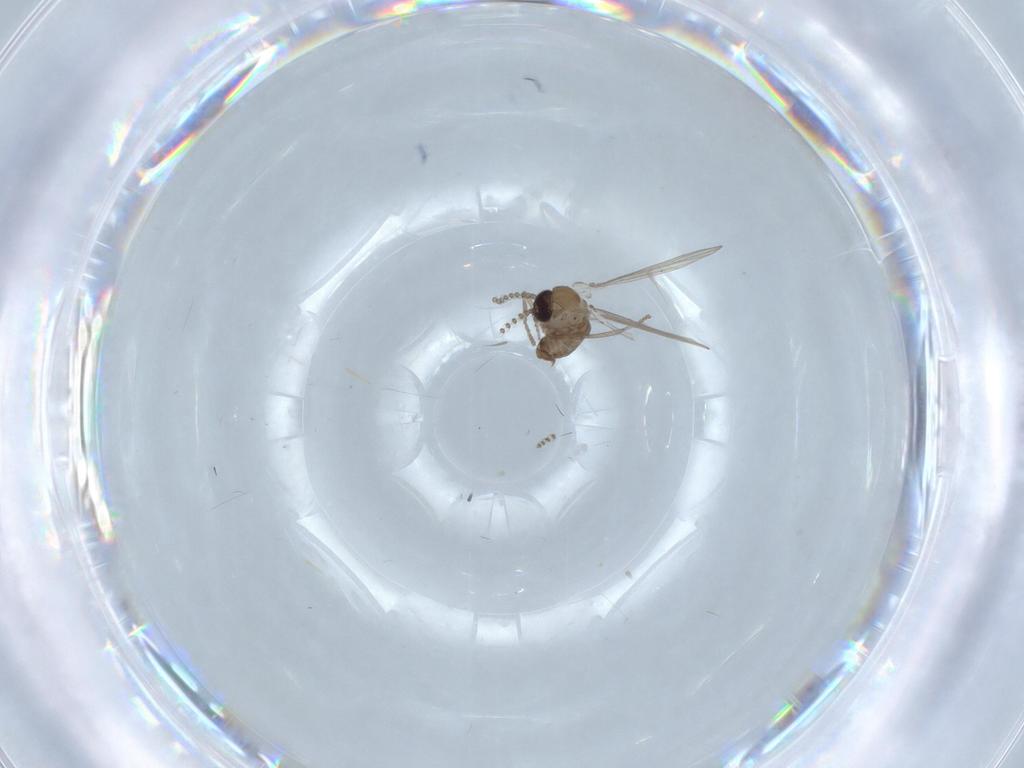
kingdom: Animalia
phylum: Arthropoda
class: Insecta
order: Diptera
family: Psychodidae
